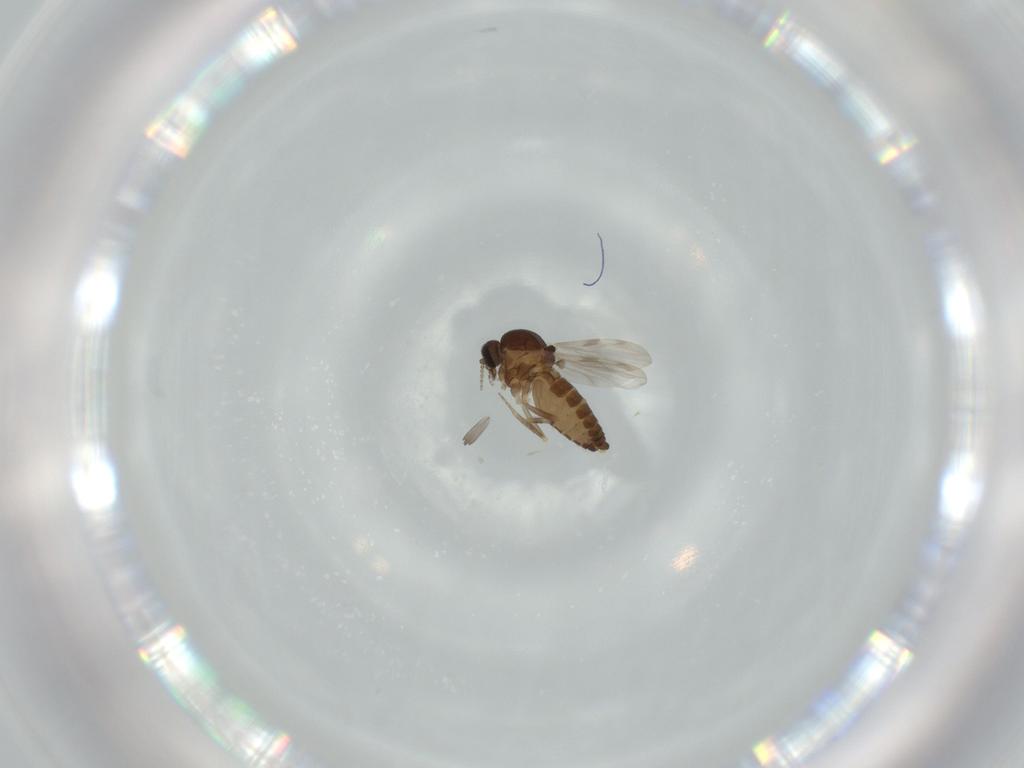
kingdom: Animalia
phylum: Arthropoda
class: Insecta
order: Diptera
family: Ceratopogonidae
